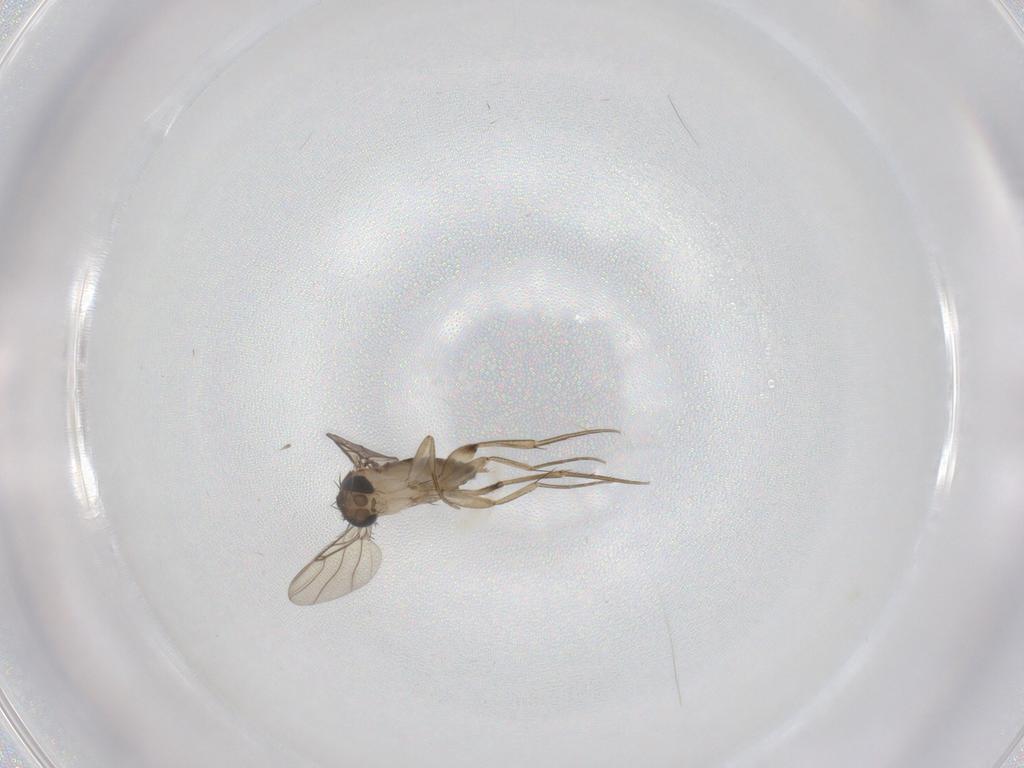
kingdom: Animalia
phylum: Arthropoda
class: Insecta
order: Diptera
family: Phoridae
